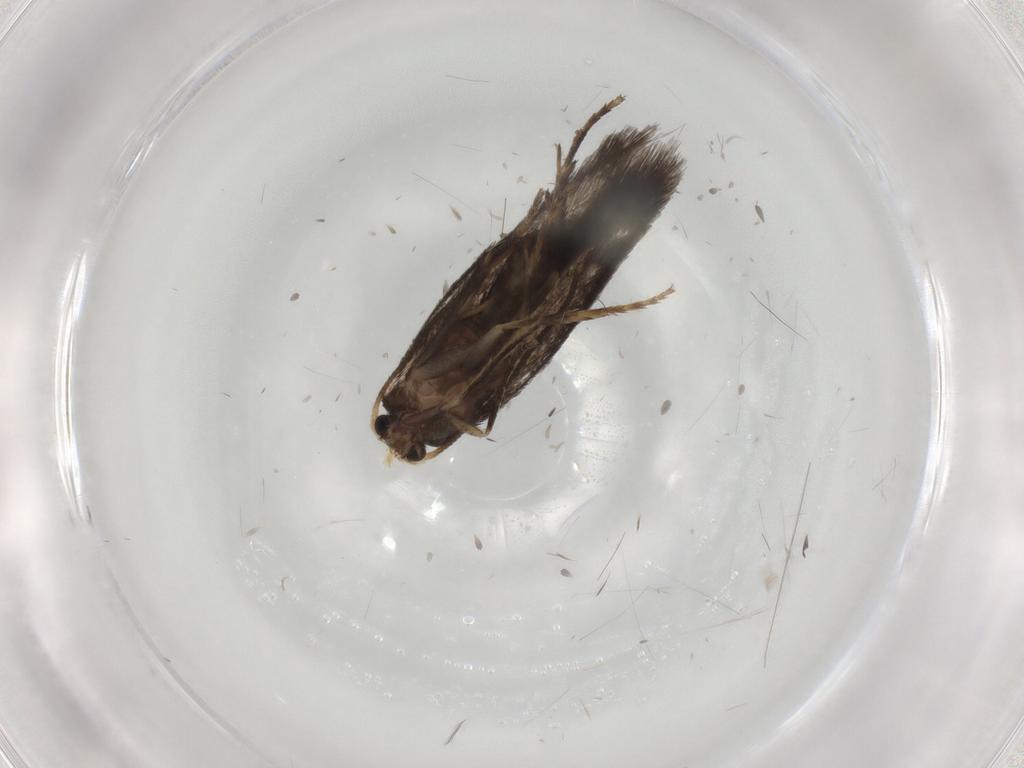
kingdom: Animalia
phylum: Arthropoda
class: Insecta
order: Lepidoptera
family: Nepticulidae
